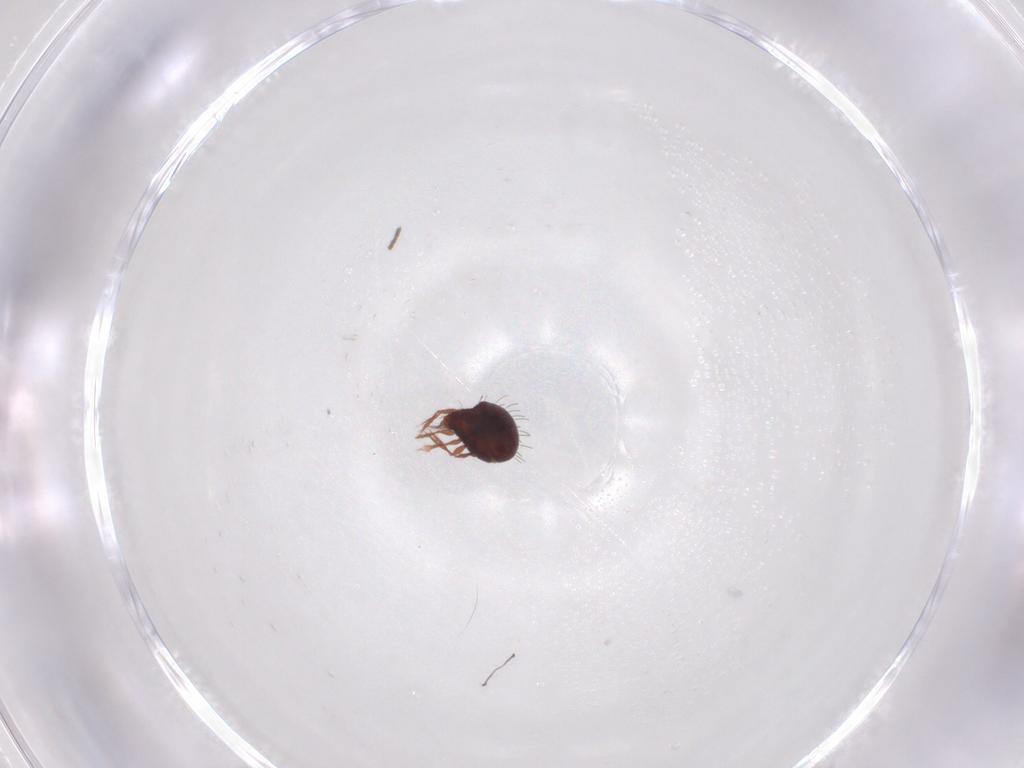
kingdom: Animalia
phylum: Arthropoda
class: Arachnida
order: Sarcoptiformes
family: Caloppiidae
